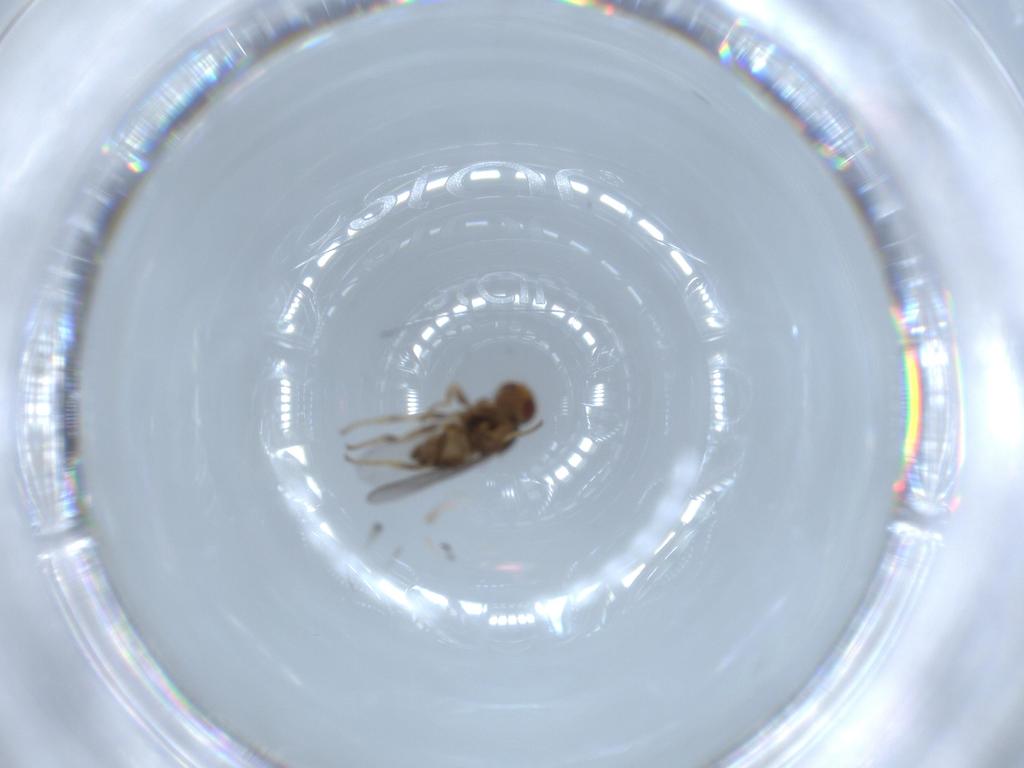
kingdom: Animalia
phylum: Arthropoda
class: Insecta
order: Diptera
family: Chloropidae
